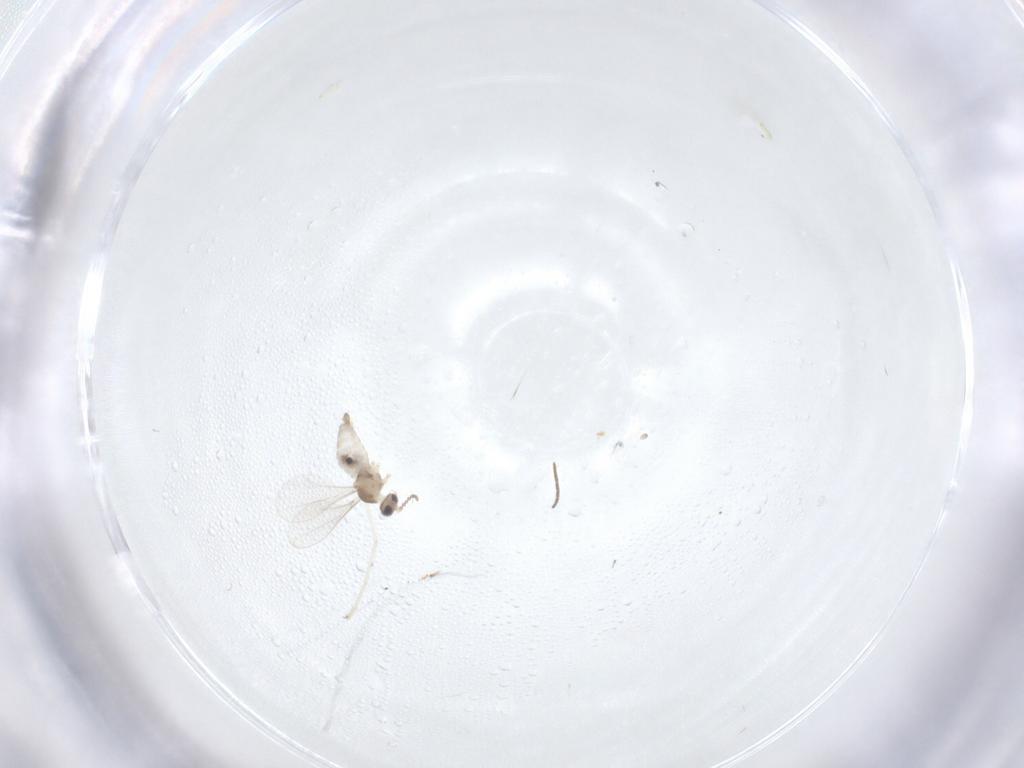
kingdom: Animalia
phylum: Arthropoda
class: Insecta
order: Diptera
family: Cecidomyiidae
